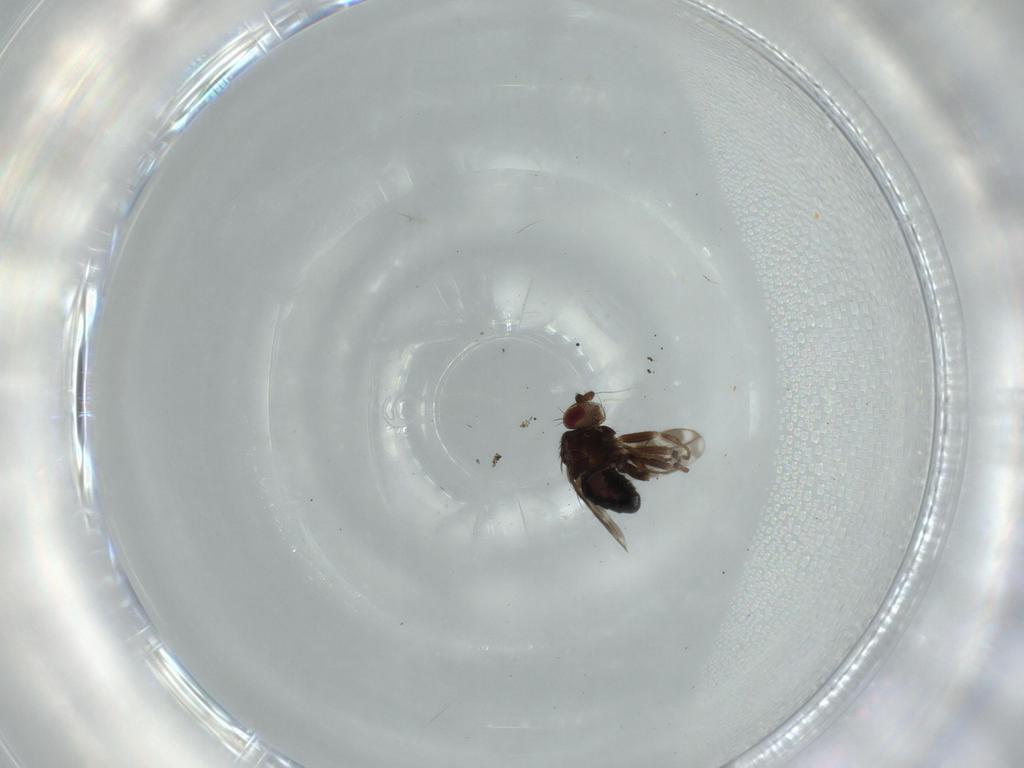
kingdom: Animalia
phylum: Arthropoda
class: Insecta
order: Diptera
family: Sphaeroceridae
